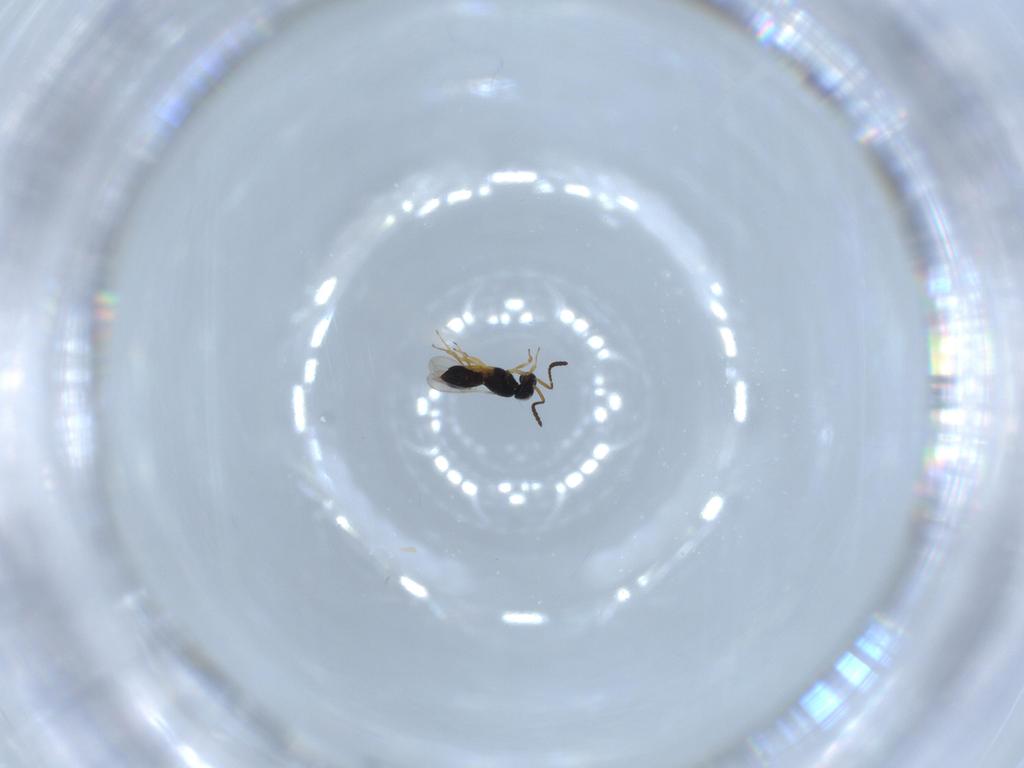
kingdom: Animalia
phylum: Arthropoda
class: Insecta
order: Hymenoptera
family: Scelionidae
